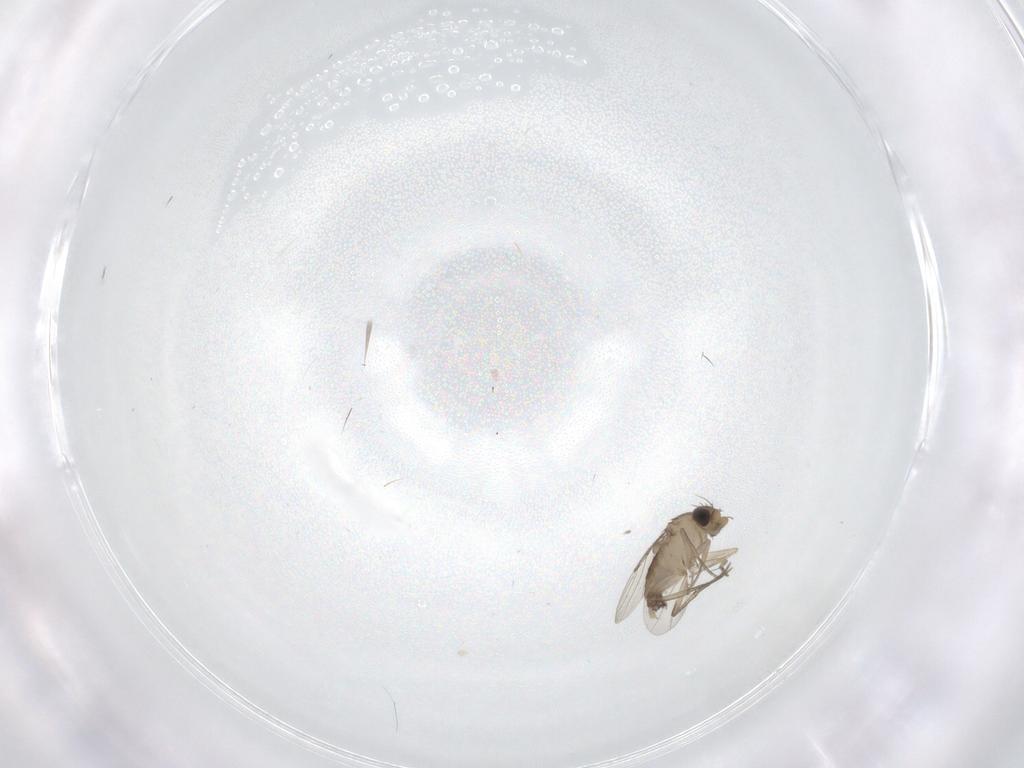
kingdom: Animalia
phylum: Arthropoda
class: Insecta
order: Diptera
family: Phoridae
